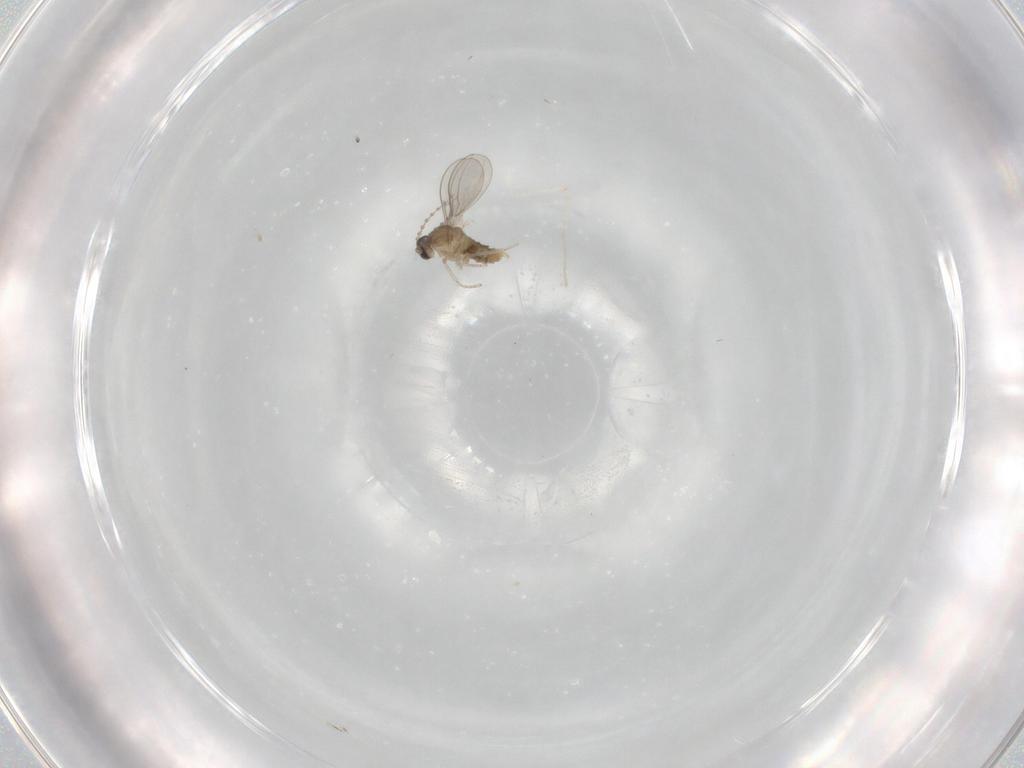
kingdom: Animalia
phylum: Arthropoda
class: Insecta
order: Diptera
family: Cecidomyiidae
